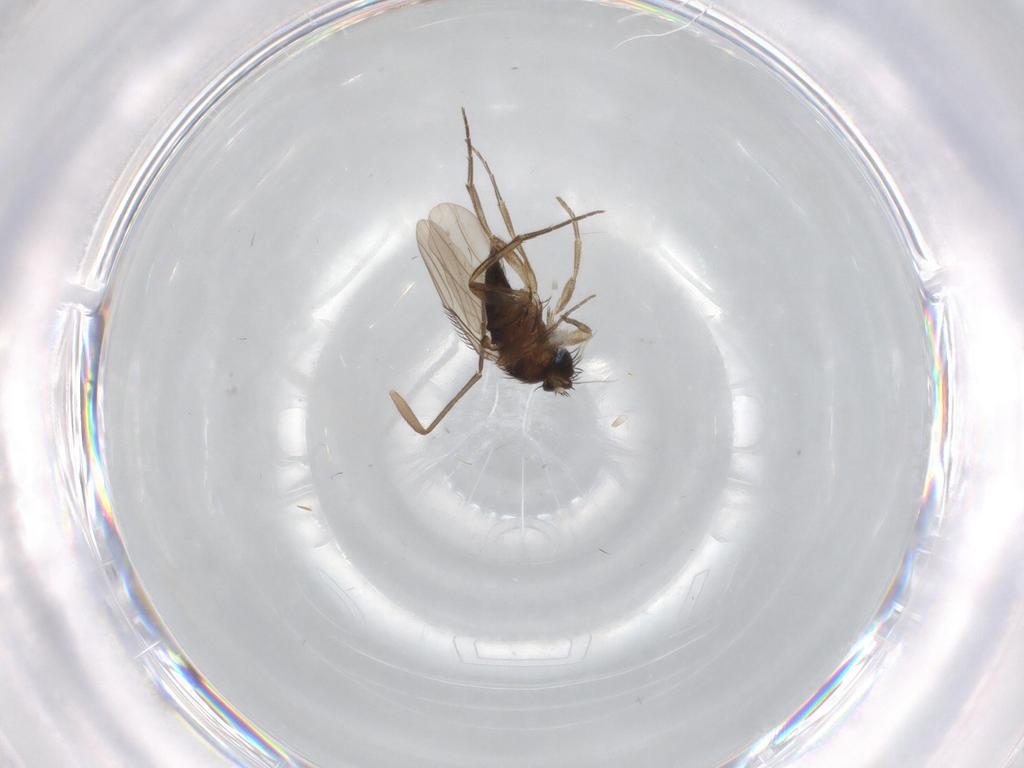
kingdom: Animalia
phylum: Arthropoda
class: Insecta
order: Diptera
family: Phoridae
